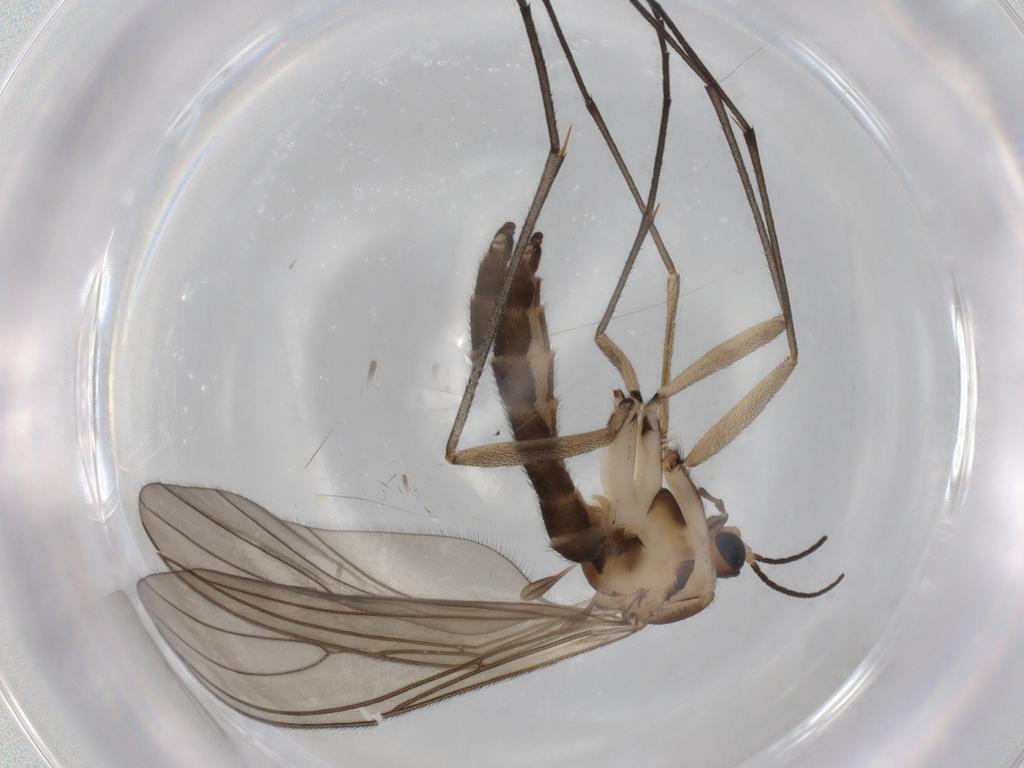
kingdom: Animalia
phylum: Arthropoda
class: Insecta
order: Diptera
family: Sciaridae
